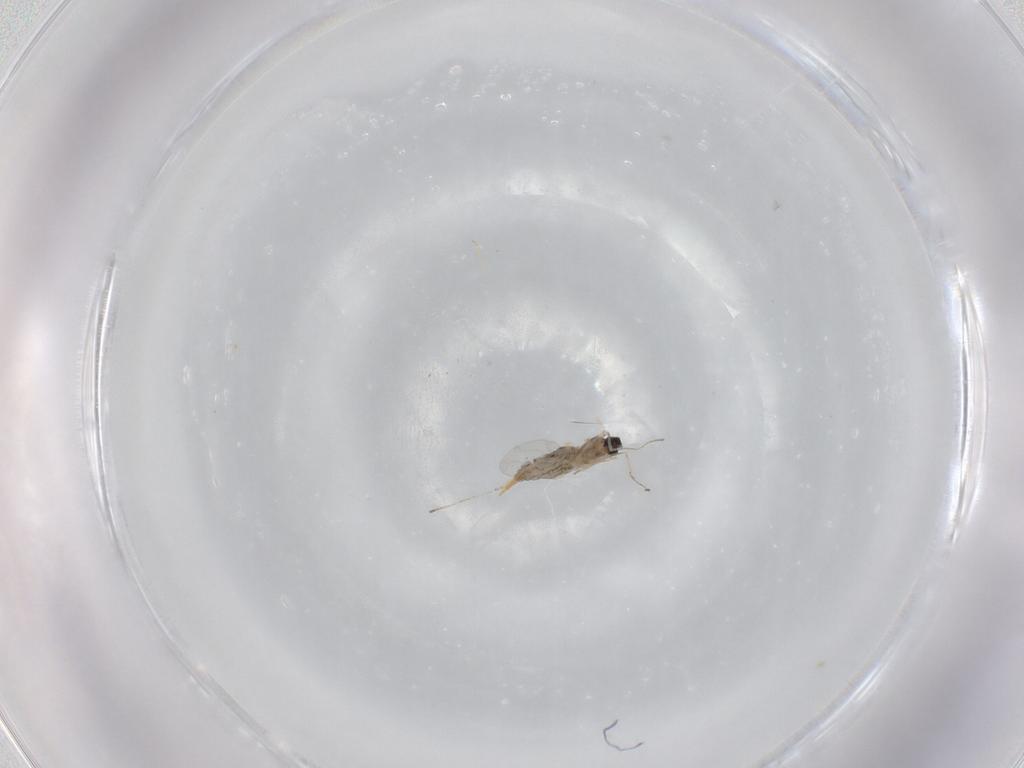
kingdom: Animalia
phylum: Arthropoda
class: Insecta
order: Diptera
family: Cecidomyiidae
